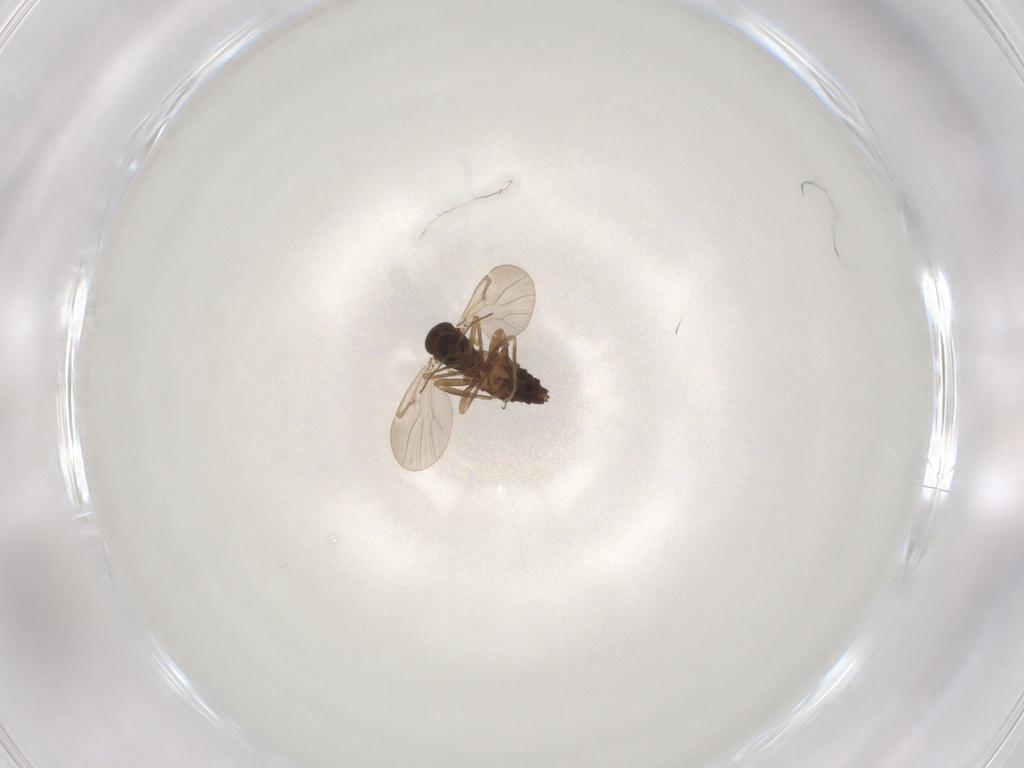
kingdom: Animalia
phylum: Arthropoda
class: Insecta
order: Diptera
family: Ceratopogonidae
